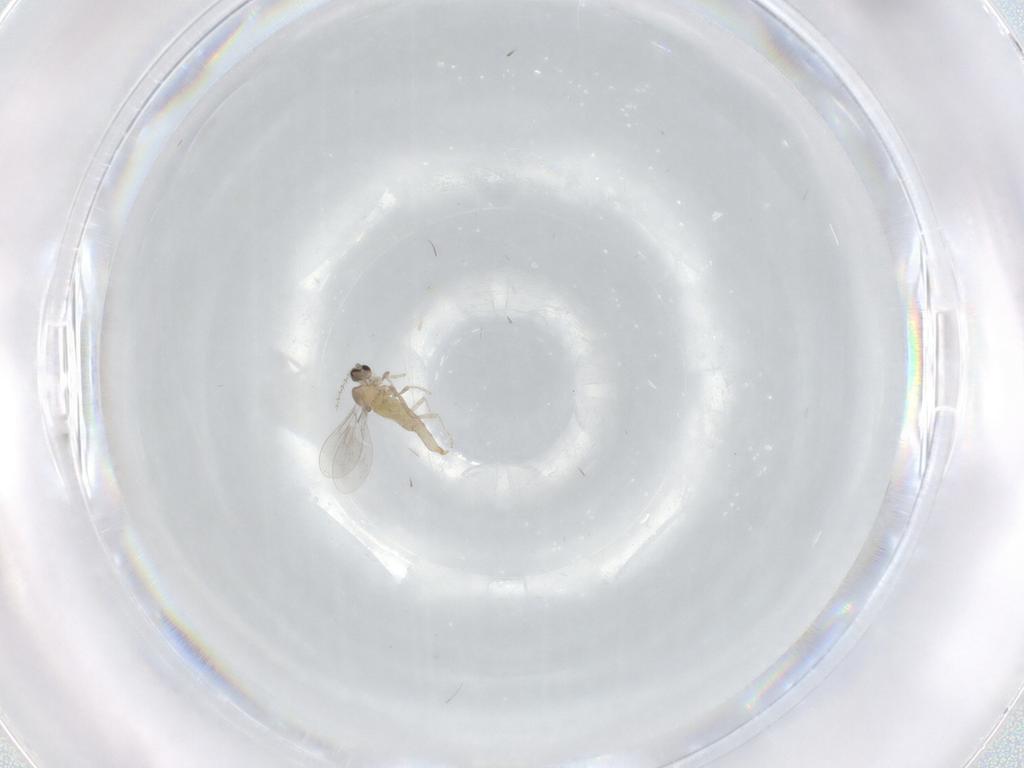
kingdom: Animalia
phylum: Arthropoda
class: Insecta
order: Diptera
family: Cecidomyiidae
